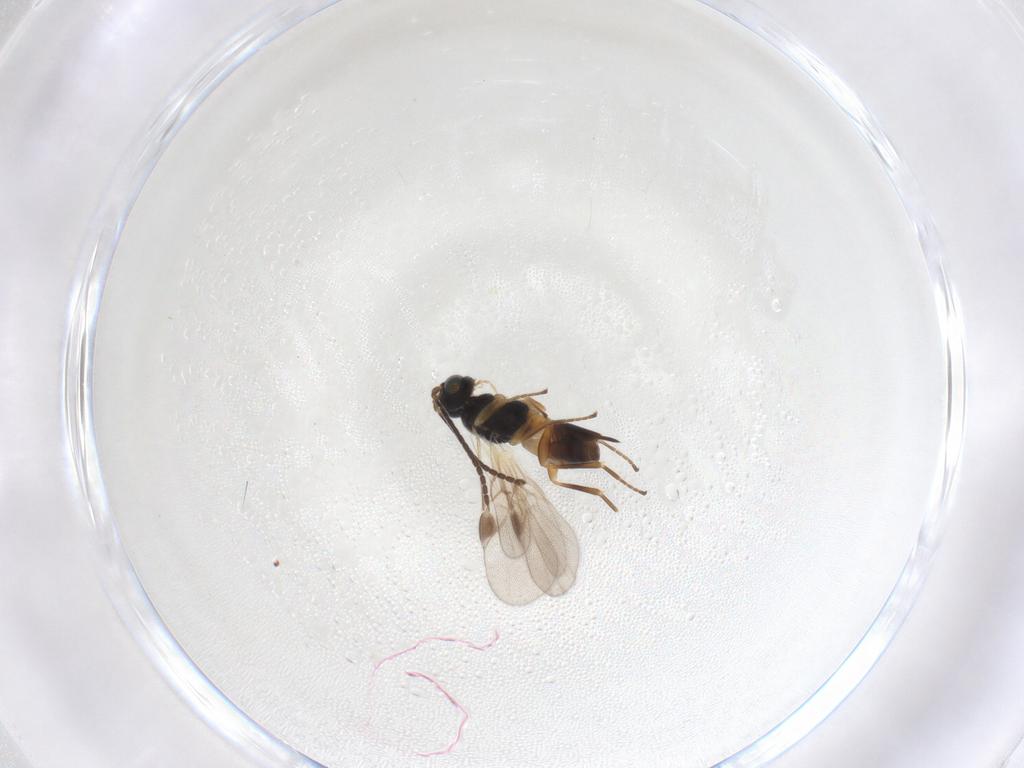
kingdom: Animalia
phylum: Arthropoda
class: Insecta
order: Hymenoptera
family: Braconidae
